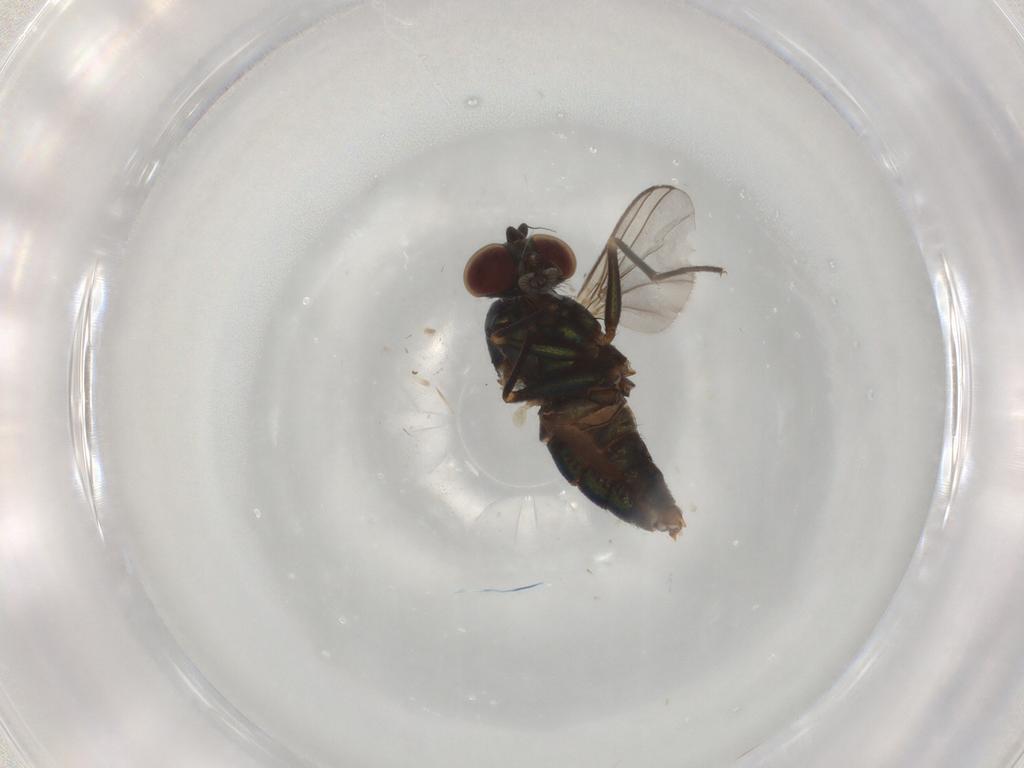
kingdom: Animalia
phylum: Arthropoda
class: Insecta
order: Diptera
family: Dolichopodidae
